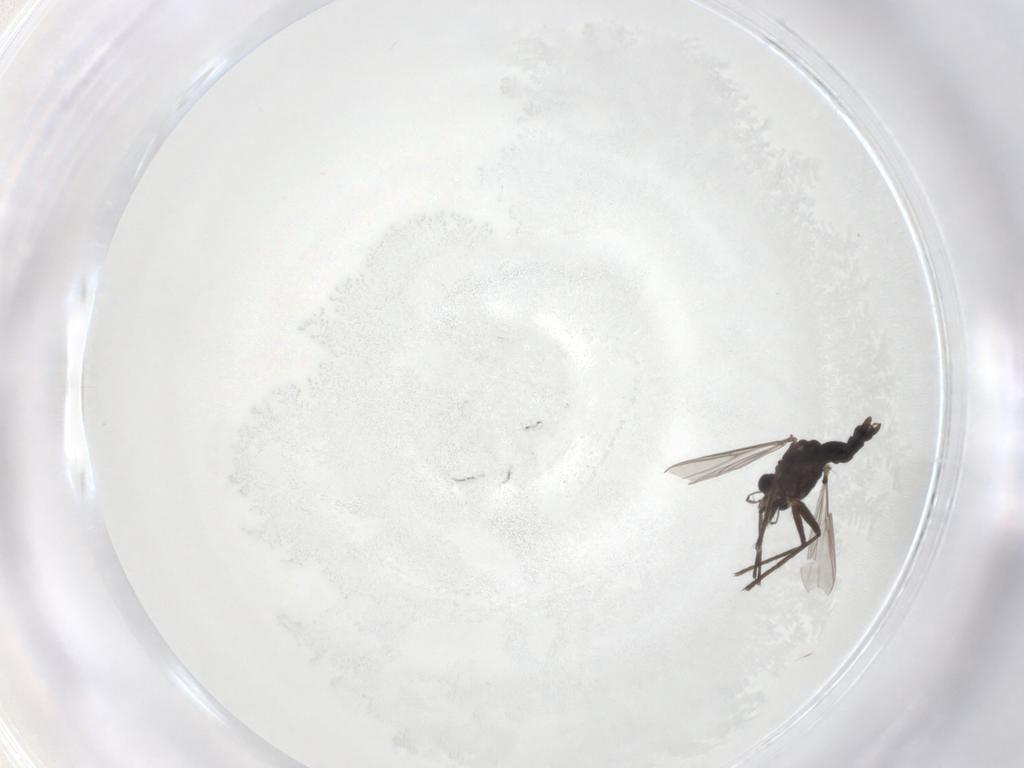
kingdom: Animalia
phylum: Arthropoda
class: Insecta
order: Diptera
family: Chironomidae
